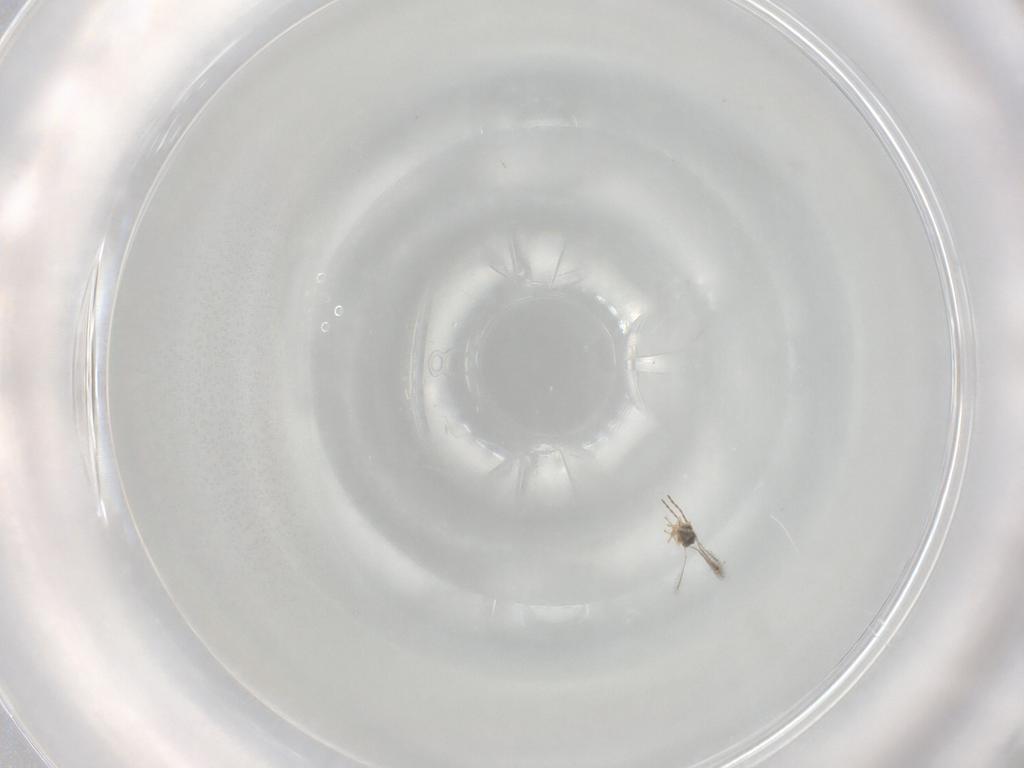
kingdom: Animalia
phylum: Arthropoda
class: Insecta
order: Hymenoptera
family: Apidae
